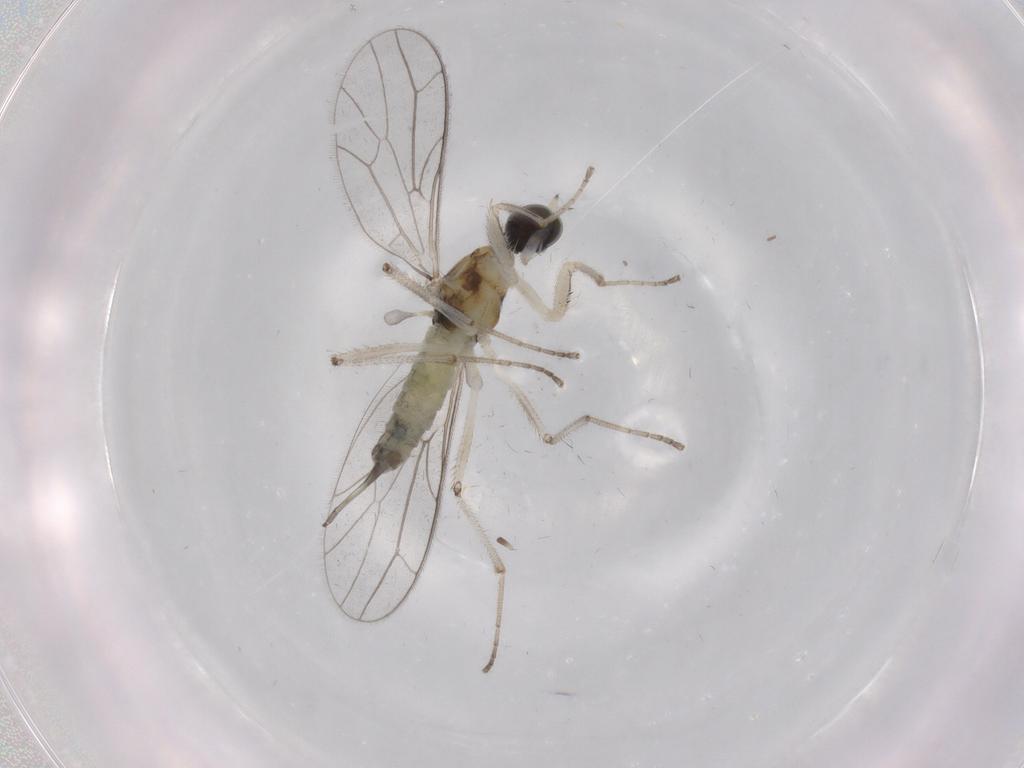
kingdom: Animalia
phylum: Arthropoda
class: Insecta
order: Diptera
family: Empididae
